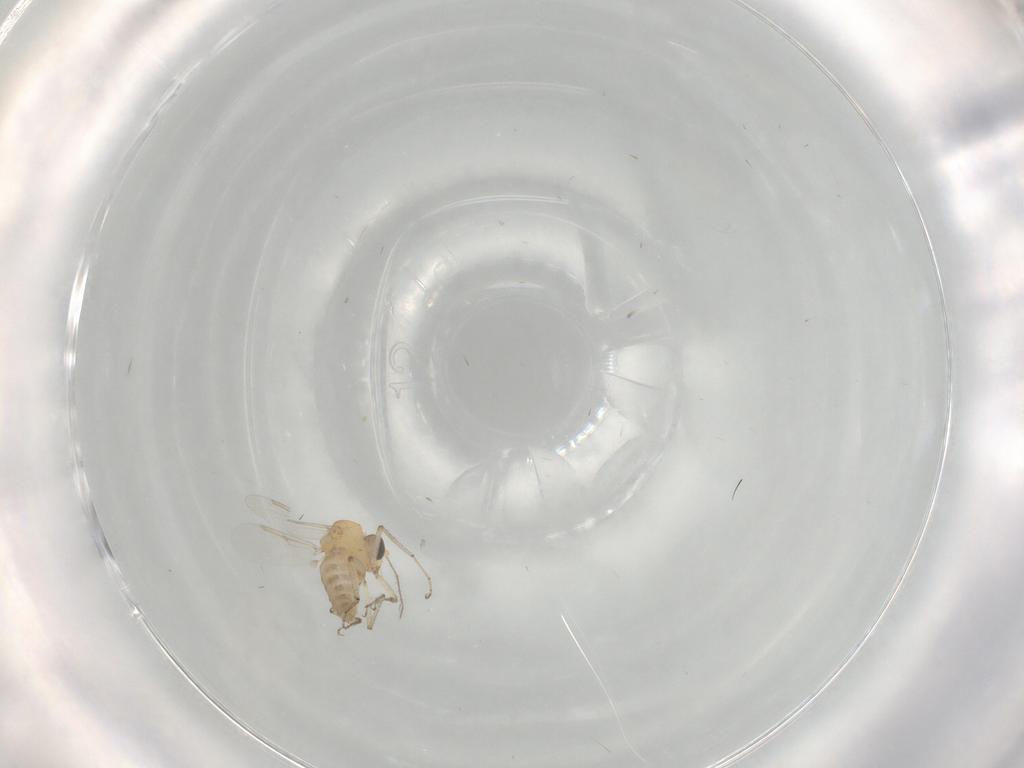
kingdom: Animalia
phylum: Arthropoda
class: Insecta
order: Diptera
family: Ceratopogonidae
